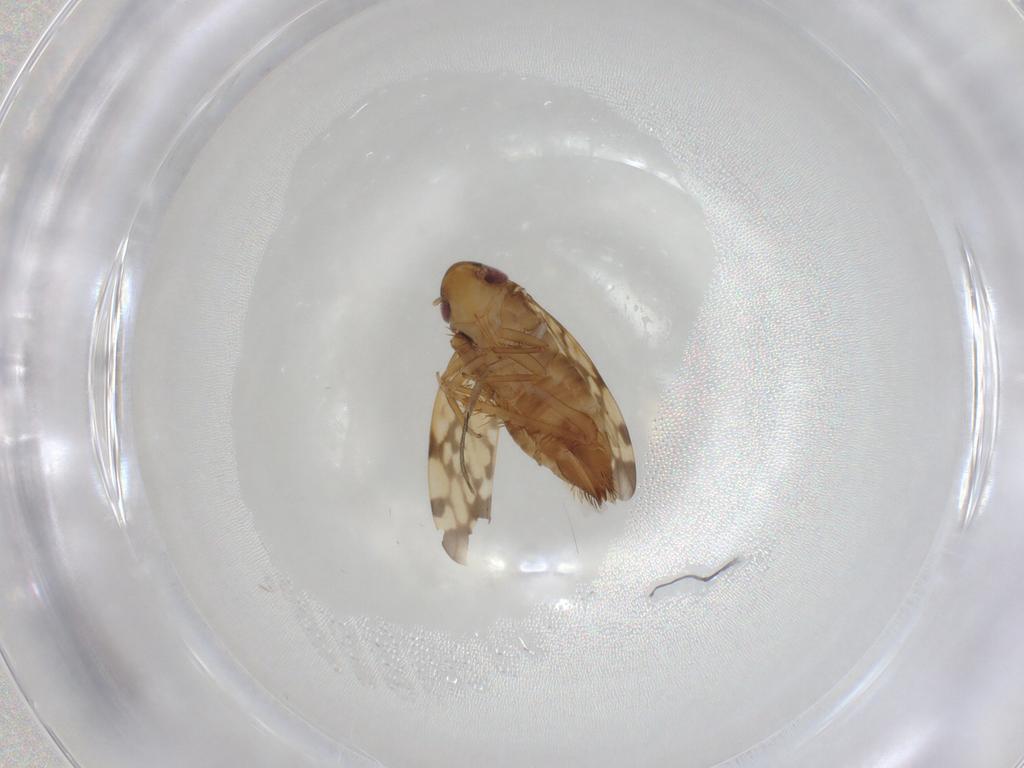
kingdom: Animalia
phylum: Arthropoda
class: Insecta
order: Hemiptera
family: Cicadellidae
